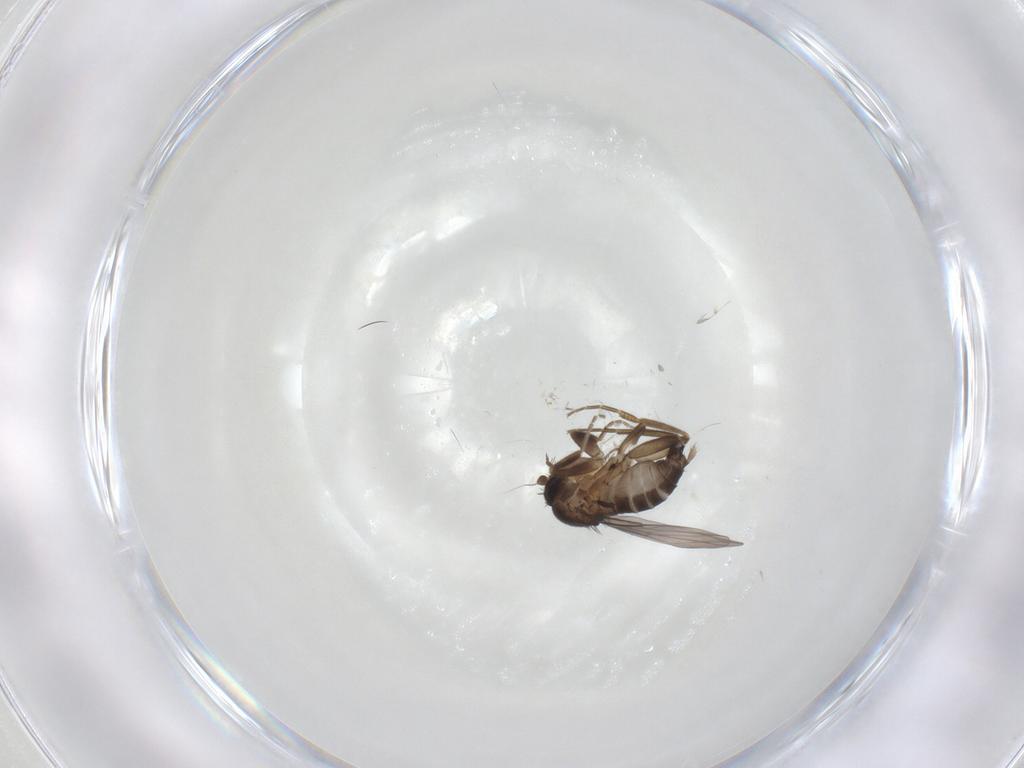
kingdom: Animalia
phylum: Arthropoda
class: Insecta
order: Diptera
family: Phoridae
